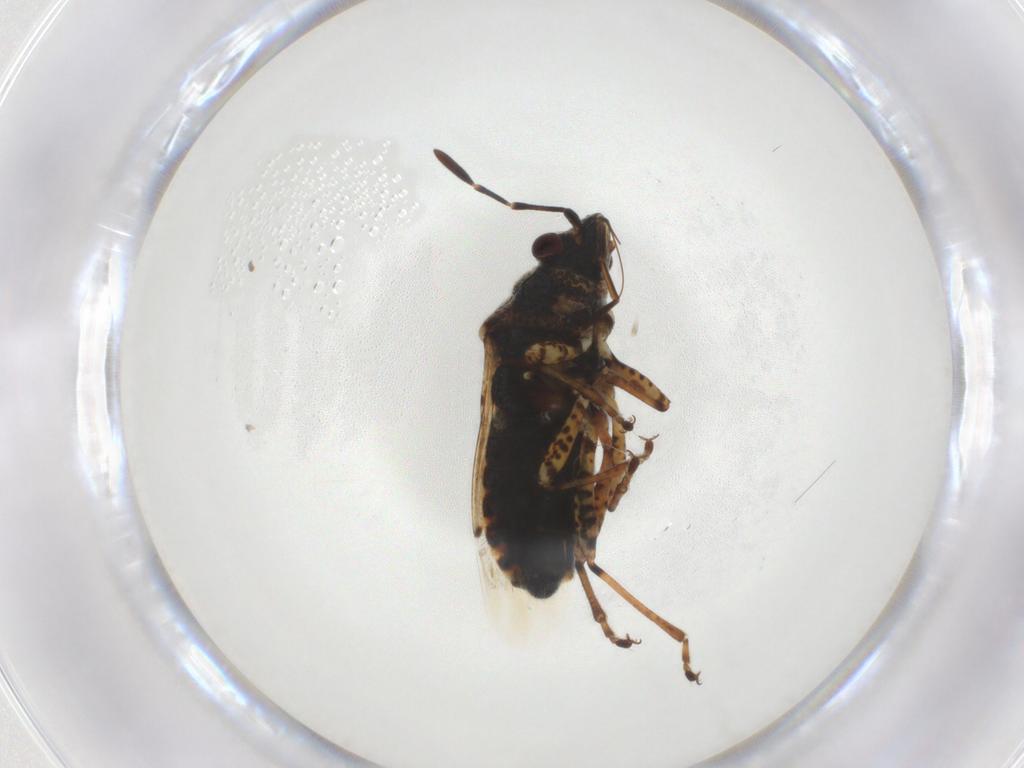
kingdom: Animalia
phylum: Arthropoda
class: Insecta
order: Hemiptera
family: Lygaeidae
